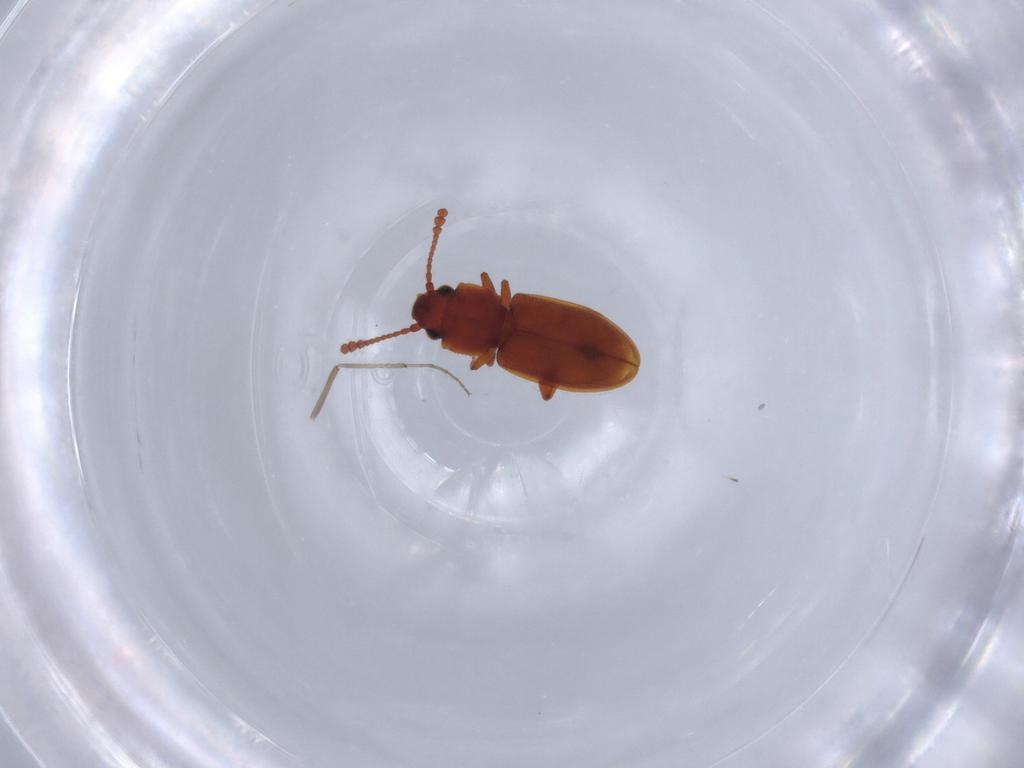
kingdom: Animalia
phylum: Arthropoda
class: Insecta
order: Coleoptera
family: Silvanidae
